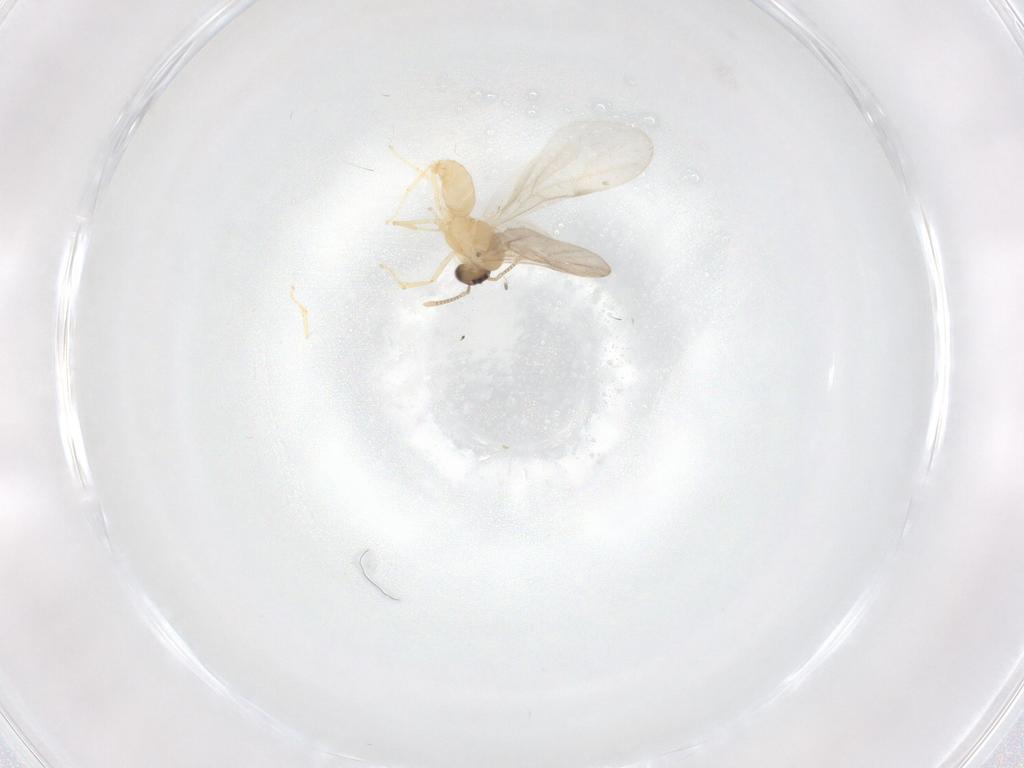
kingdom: Animalia
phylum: Arthropoda
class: Insecta
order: Hymenoptera
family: Formicidae
